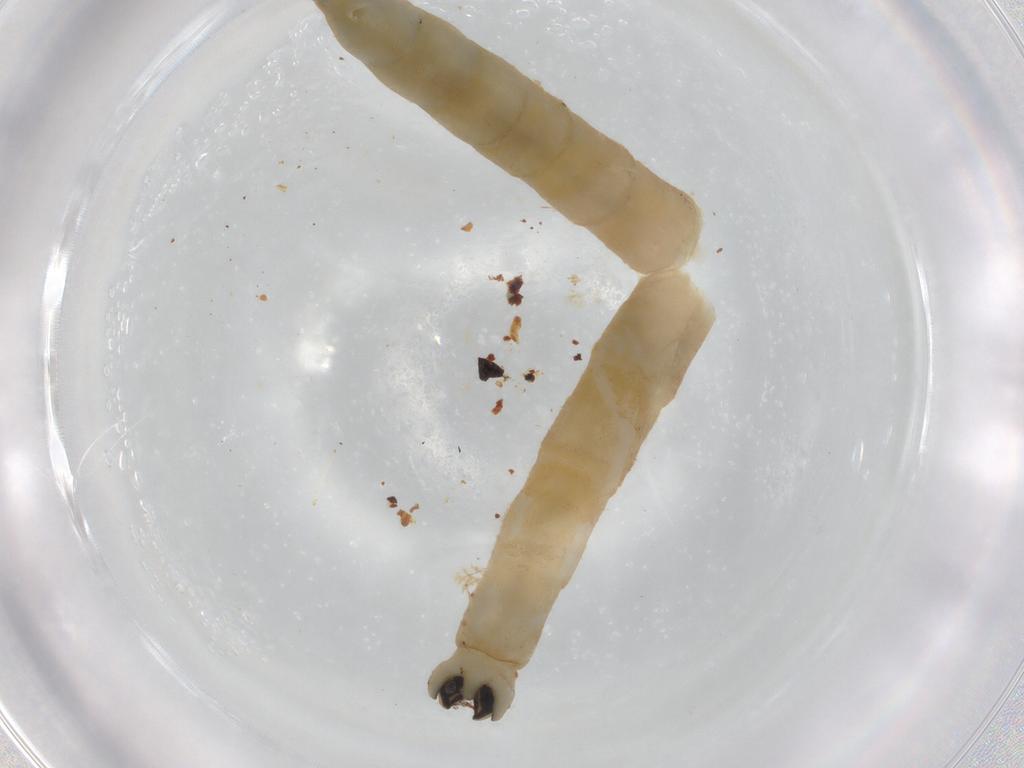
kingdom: Animalia
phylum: Arthropoda
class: Insecta
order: Diptera
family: Limoniidae
